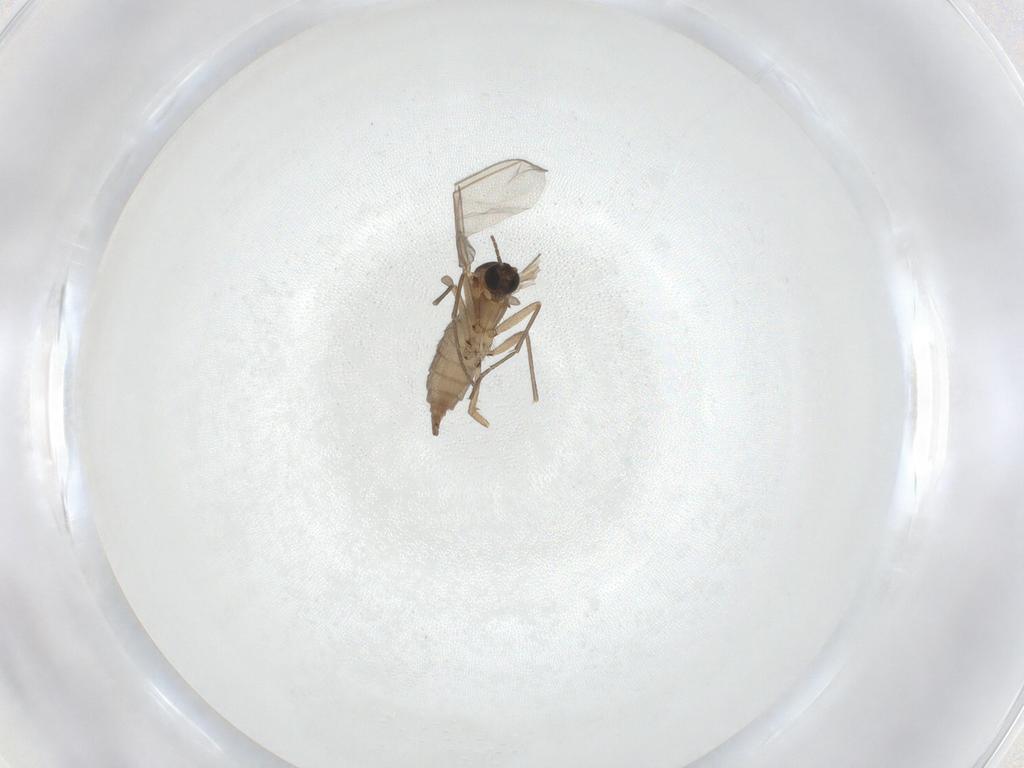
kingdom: Animalia
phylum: Arthropoda
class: Insecta
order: Diptera
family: Sciaridae
